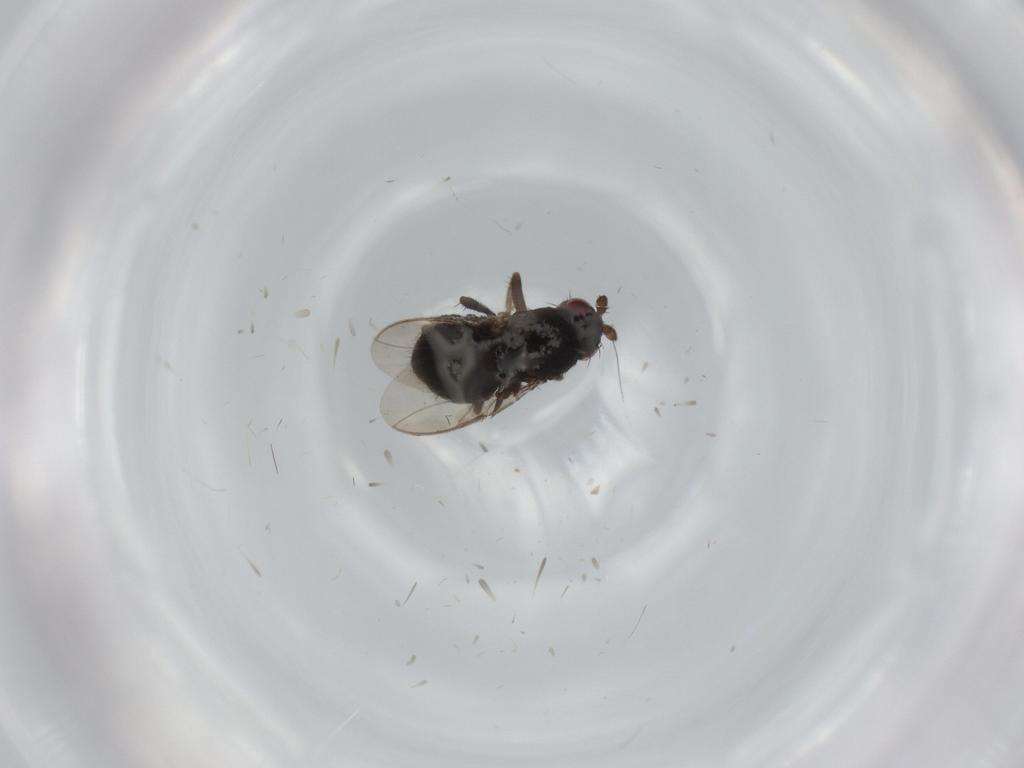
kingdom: Animalia
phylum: Arthropoda
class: Insecta
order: Diptera
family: Sphaeroceridae
